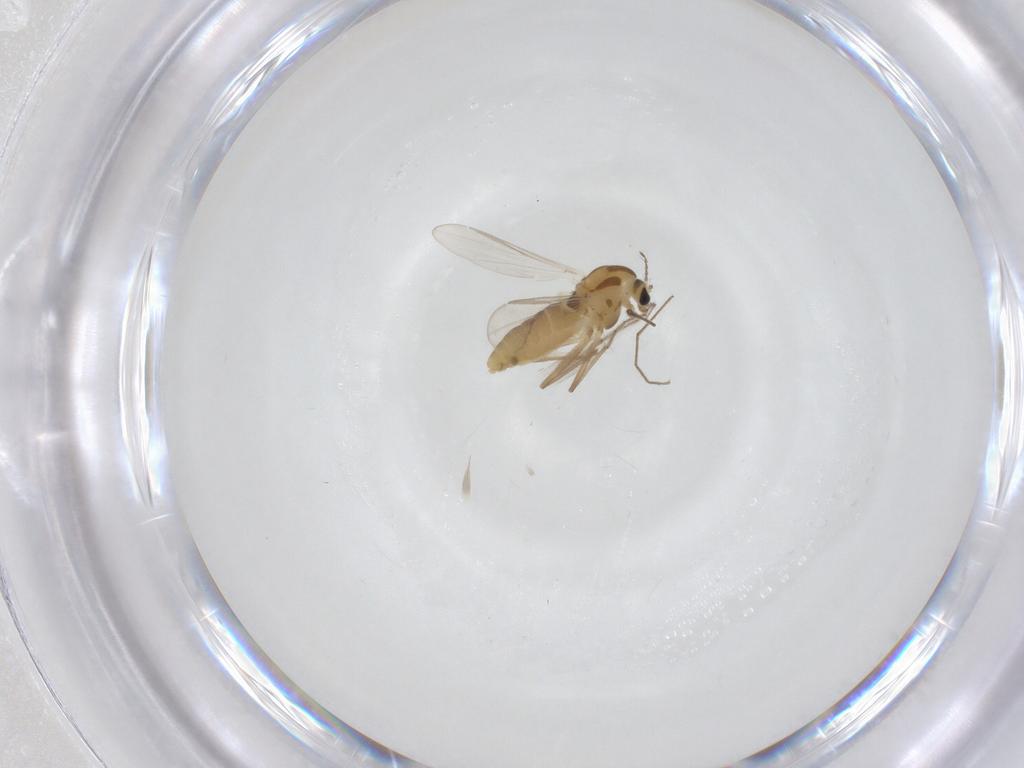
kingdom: Animalia
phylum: Arthropoda
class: Insecta
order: Diptera
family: Chironomidae
